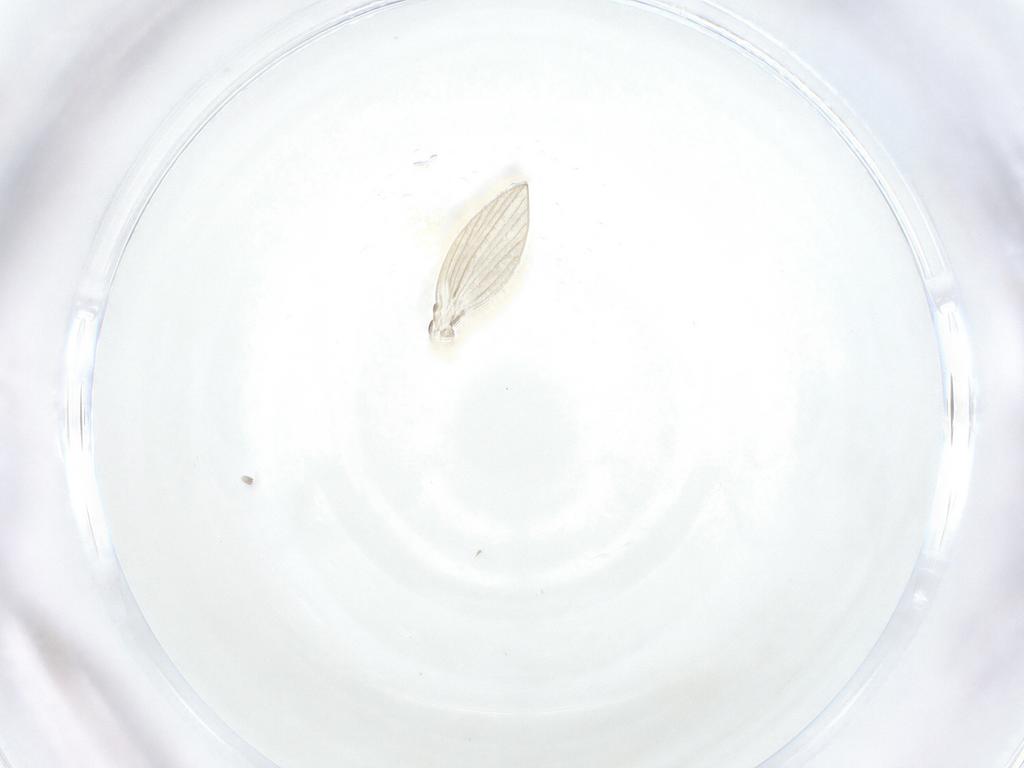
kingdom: Animalia
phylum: Arthropoda
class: Insecta
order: Diptera
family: Psychodidae
